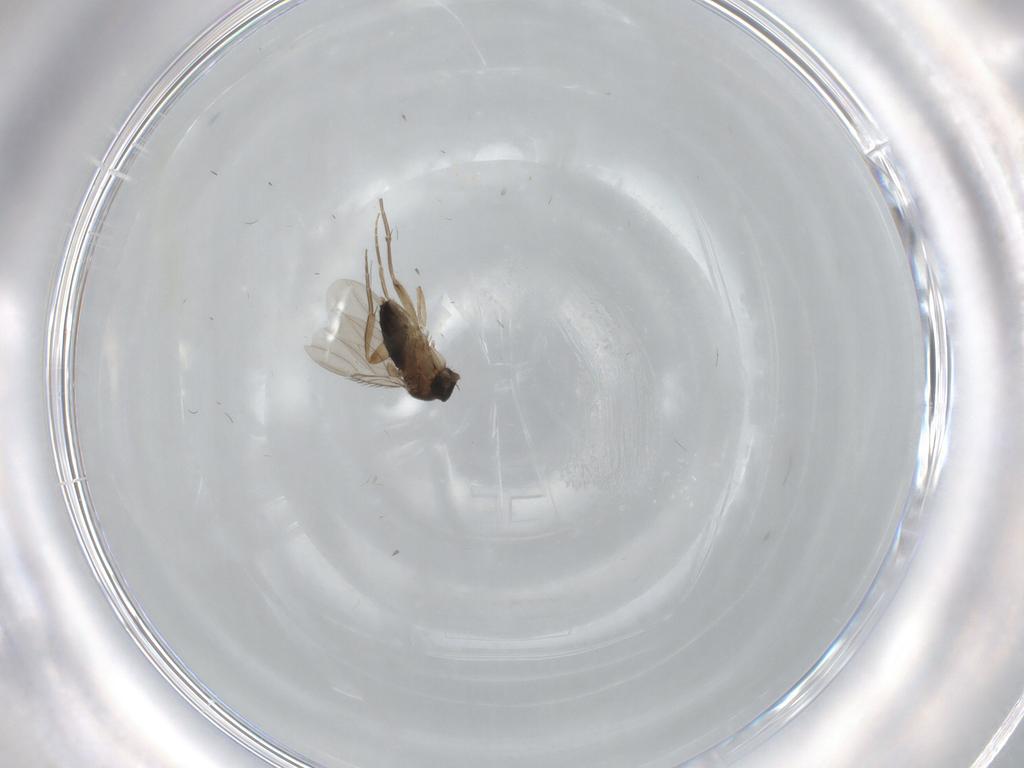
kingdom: Animalia
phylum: Arthropoda
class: Insecta
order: Diptera
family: Phoridae
